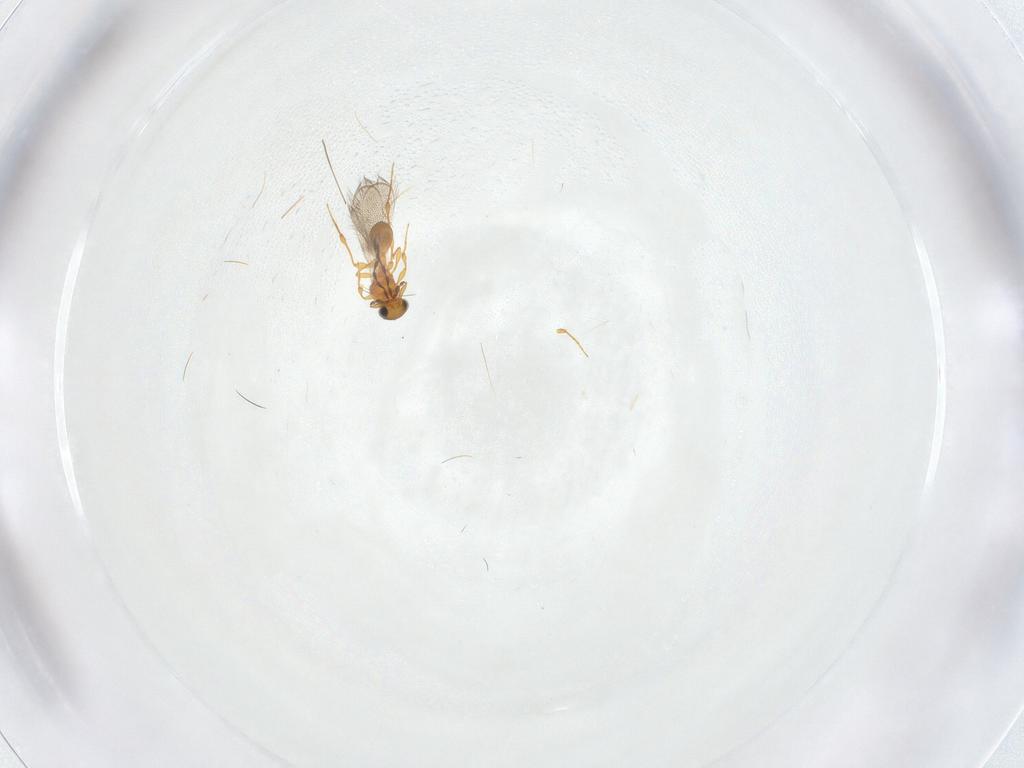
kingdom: Animalia
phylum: Arthropoda
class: Insecta
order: Hymenoptera
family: Platygastridae
